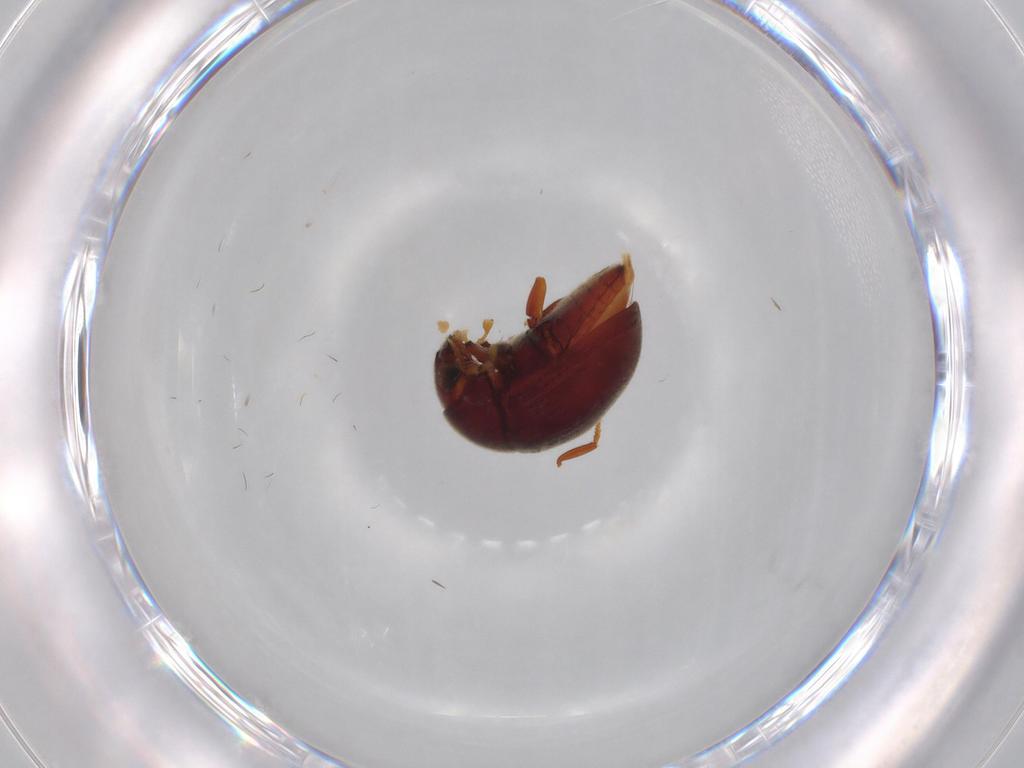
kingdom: Animalia
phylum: Arthropoda
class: Insecta
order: Coleoptera
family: Ptinidae
